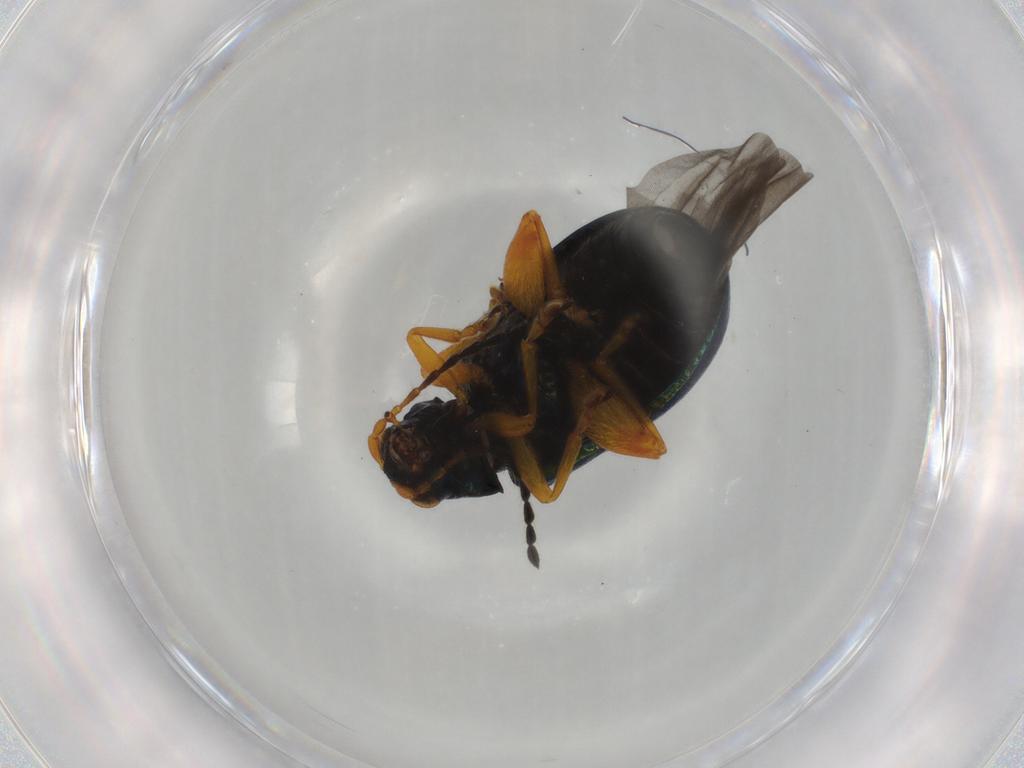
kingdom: Animalia
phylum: Arthropoda
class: Insecta
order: Coleoptera
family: Chrysomelidae
